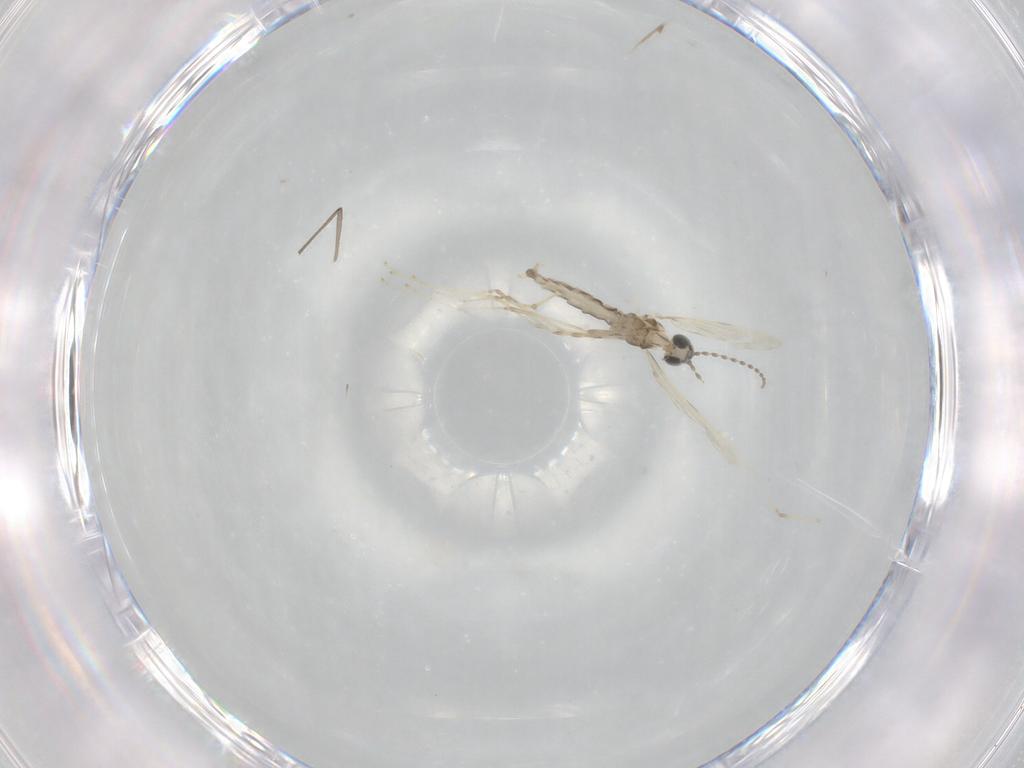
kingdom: Animalia
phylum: Arthropoda
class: Insecta
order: Diptera
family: Cecidomyiidae
